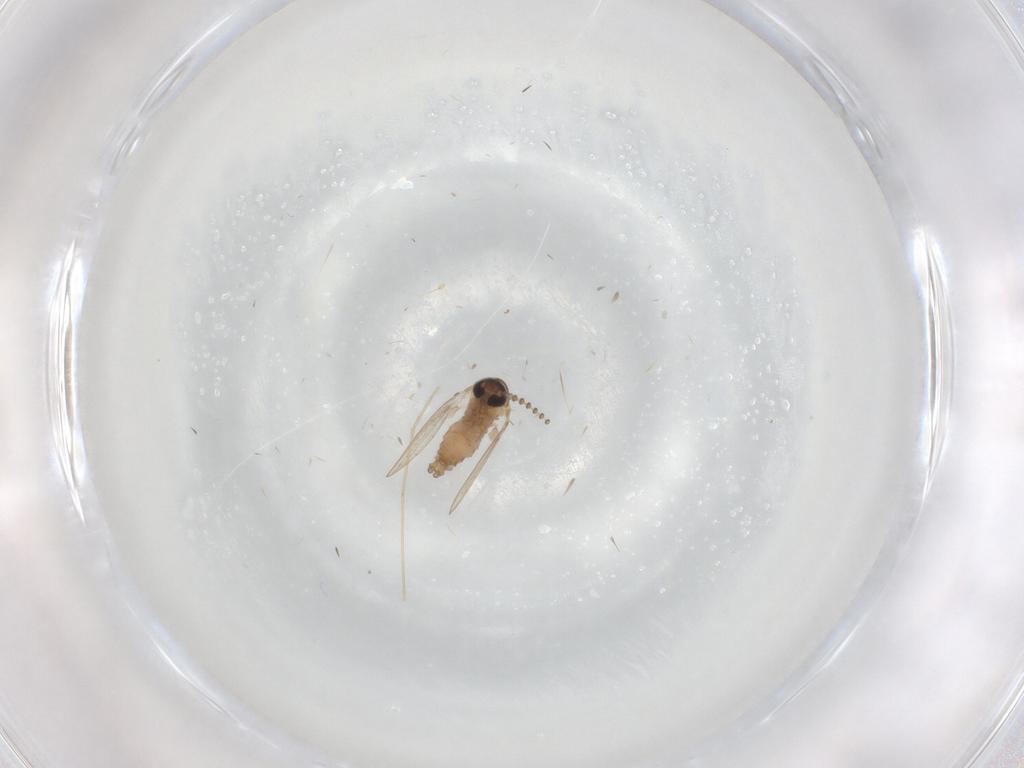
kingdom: Animalia
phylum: Arthropoda
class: Insecta
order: Diptera
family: Psychodidae
